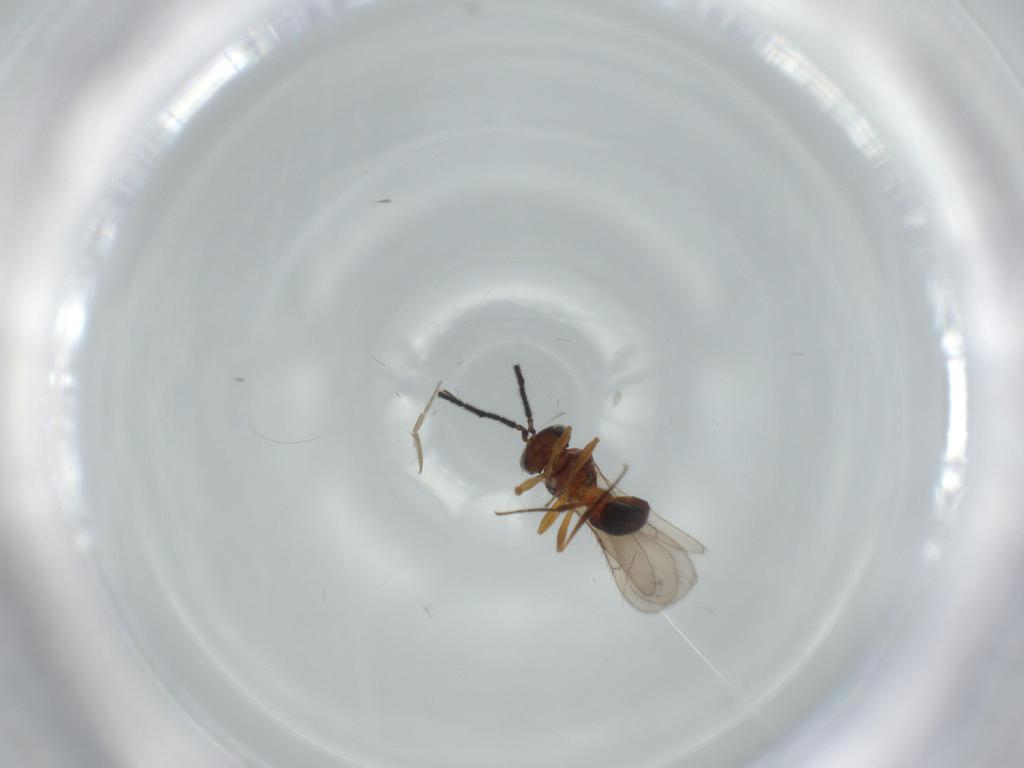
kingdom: Animalia
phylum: Arthropoda
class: Insecta
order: Hymenoptera
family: Platygastridae
